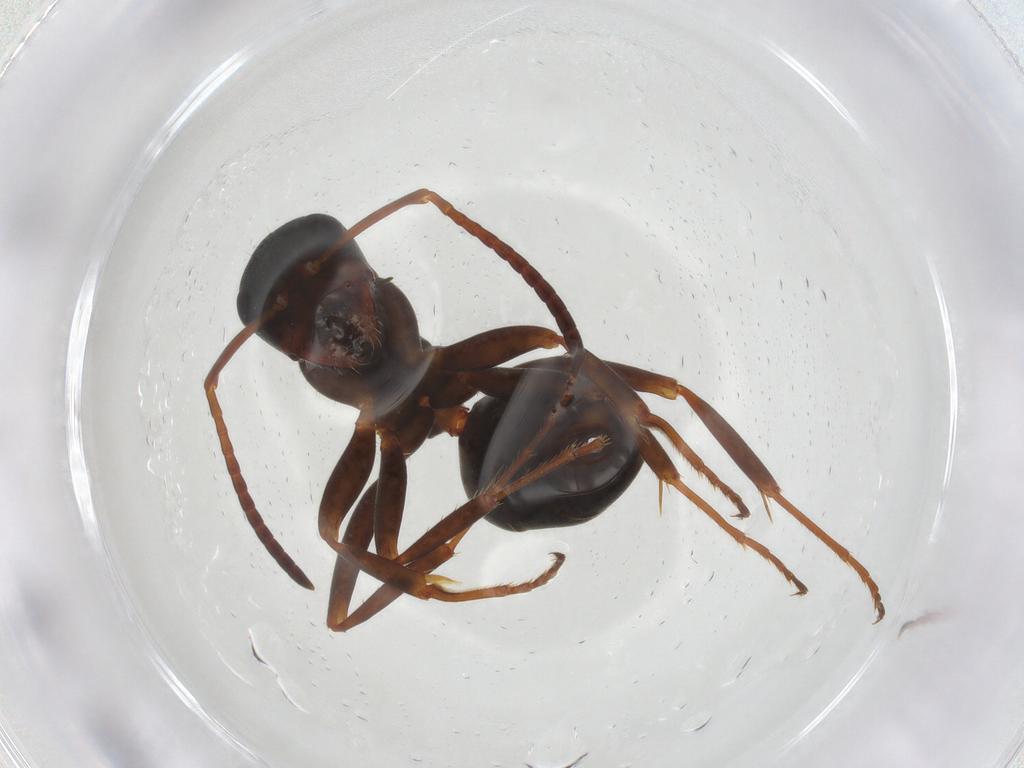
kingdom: Animalia
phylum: Arthropoda
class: Insecta
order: Hymenoptera
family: Formicidae
